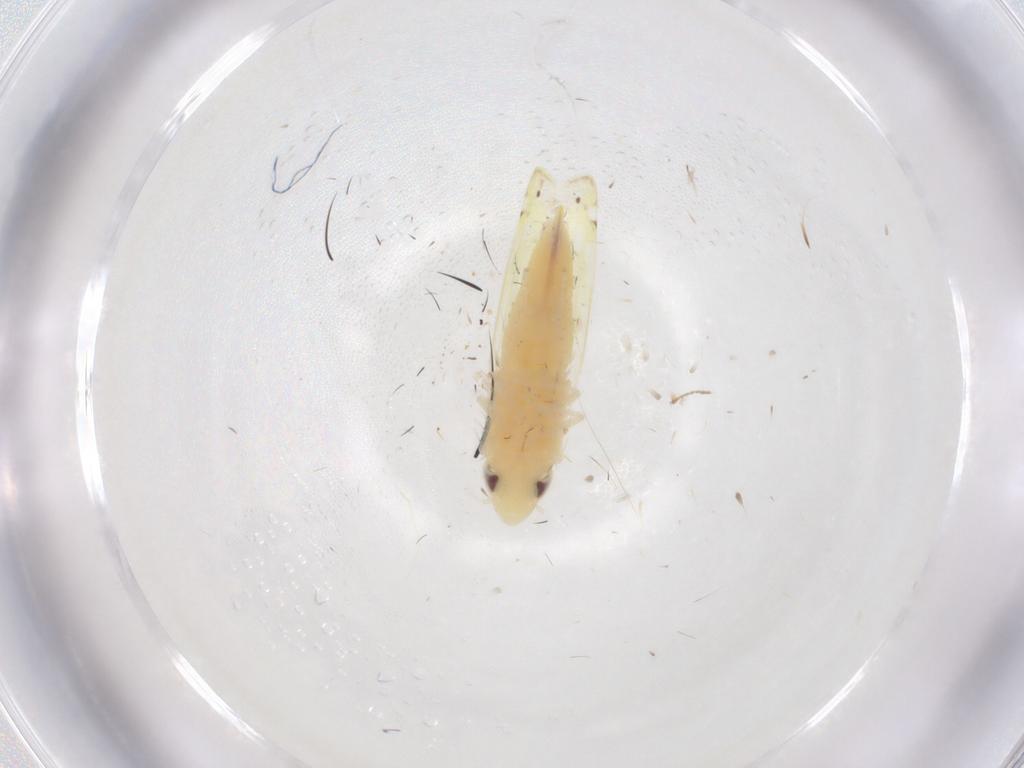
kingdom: Animalia
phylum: Arthropoda
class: Insecta
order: Hemiptera
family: Cicadellidae
